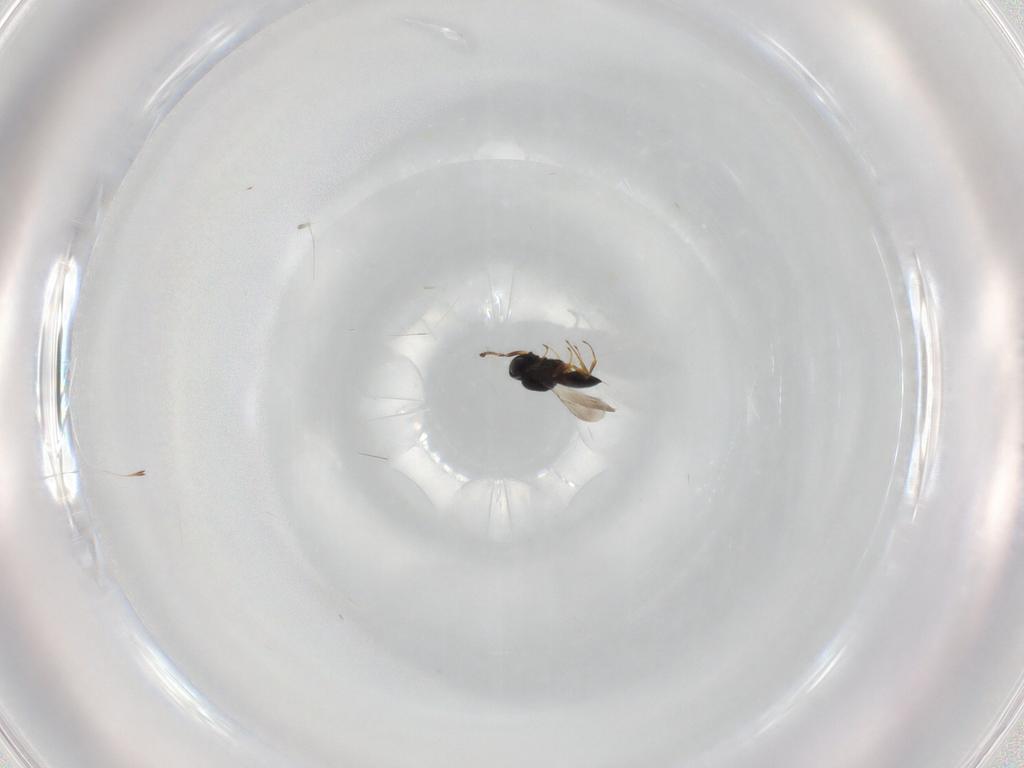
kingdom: Animalia
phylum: Arthropoda
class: Insecta
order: Hymenoptera
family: Scelionidae
